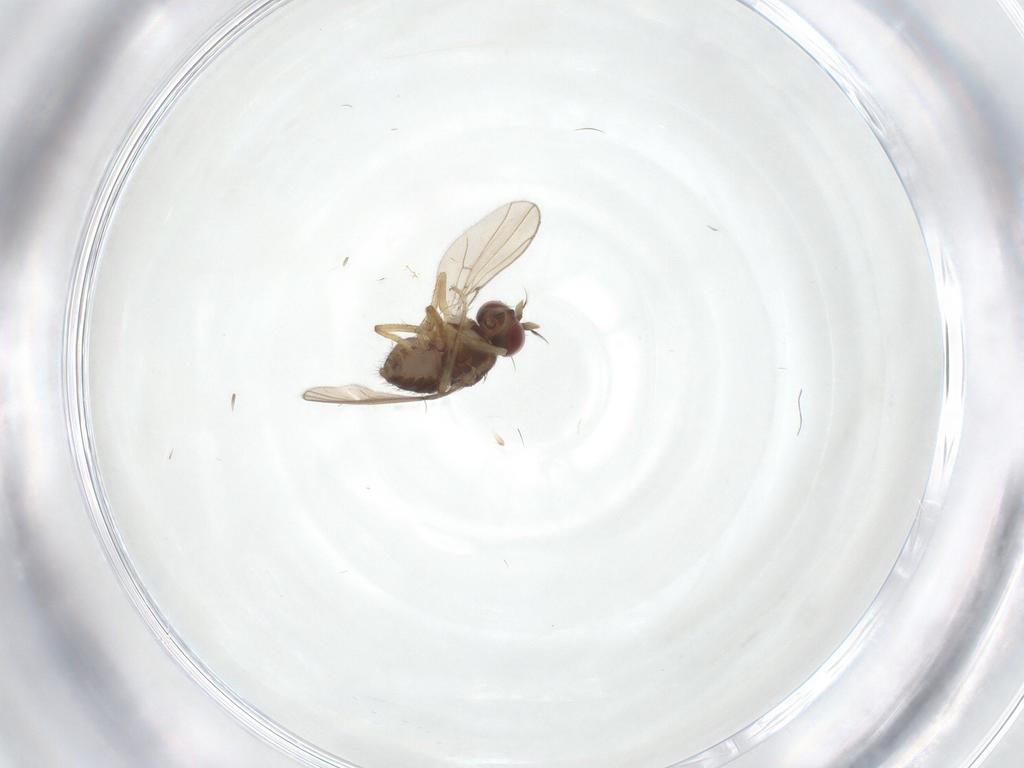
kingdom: Animalia
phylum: Arthropoda
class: Insecta
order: Diptera
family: Muscidae
